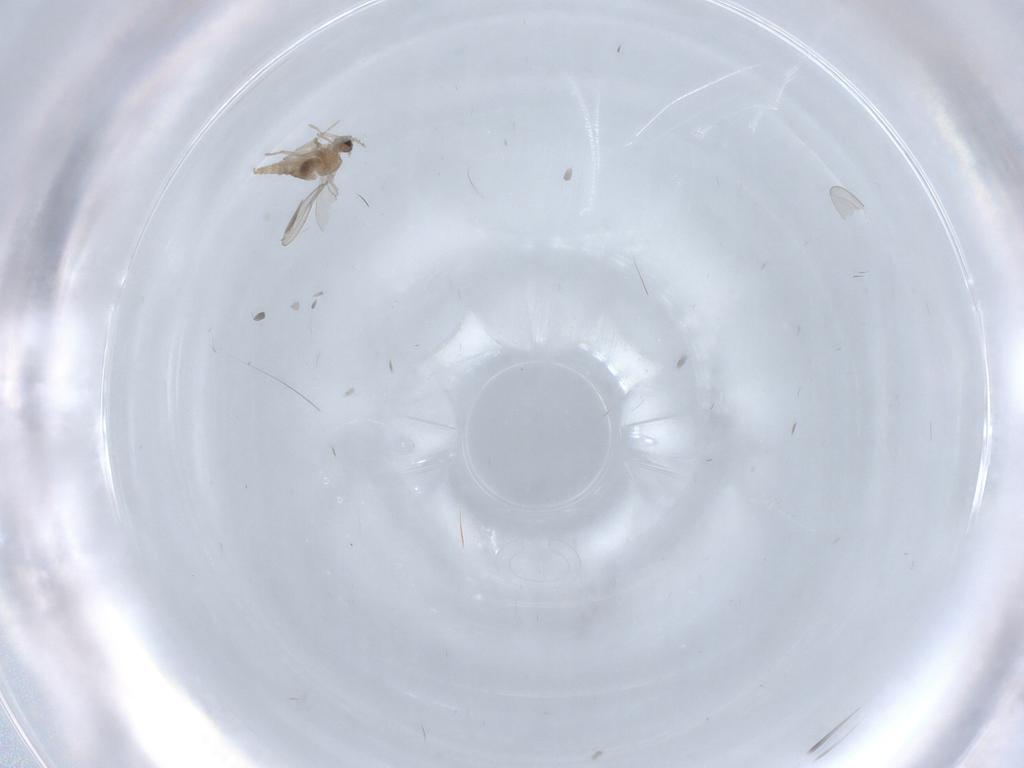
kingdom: Animalia
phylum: Arthropoda
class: Insecta
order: Diptera
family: Cecidomyiidae
